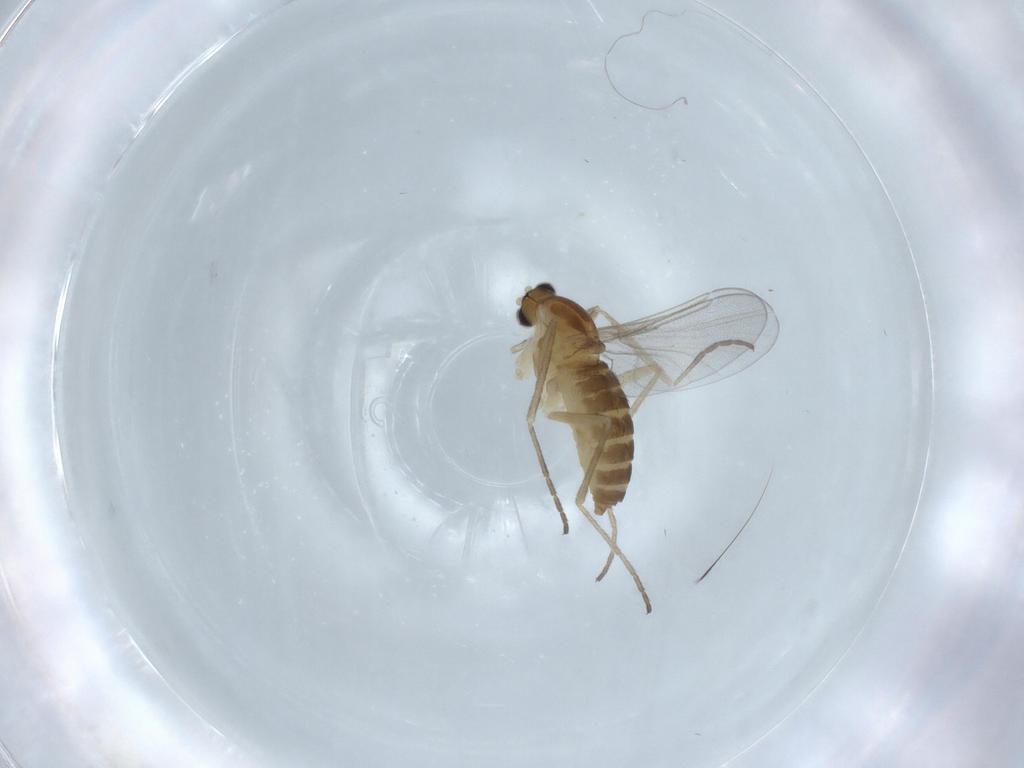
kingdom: Animalia
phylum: Arthropoda
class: Insecta
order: Diptera
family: Cecidomyiidae
